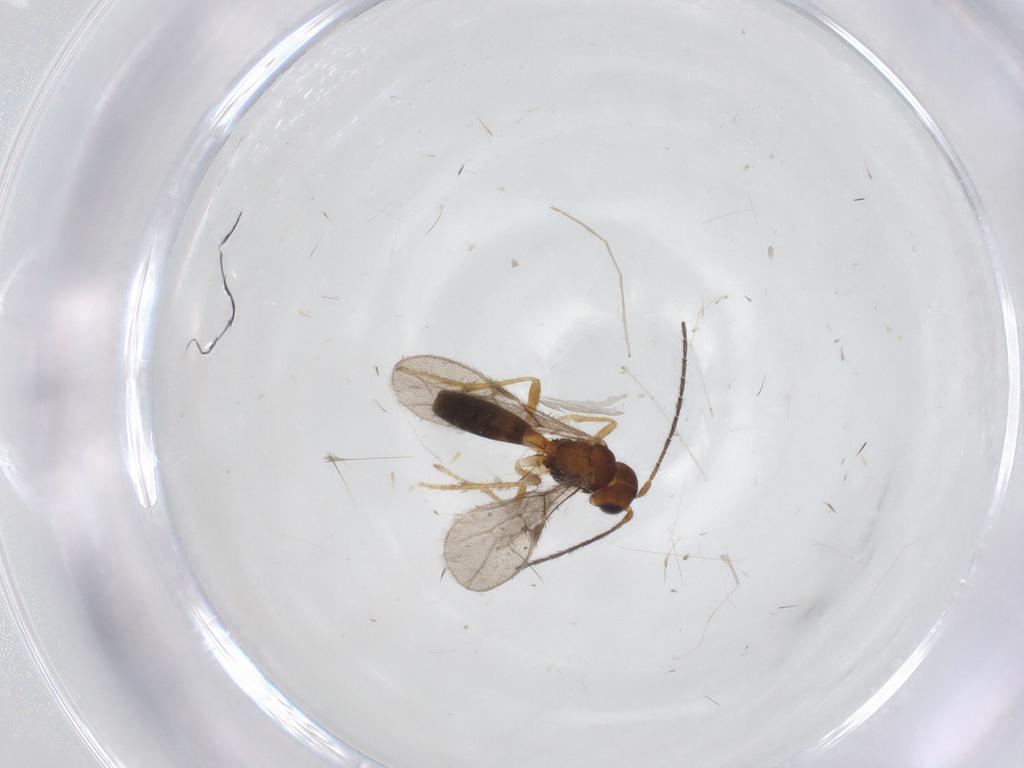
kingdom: Animalia
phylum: Arthropoda
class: Insecta
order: Hymenoptera
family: Braconidae
